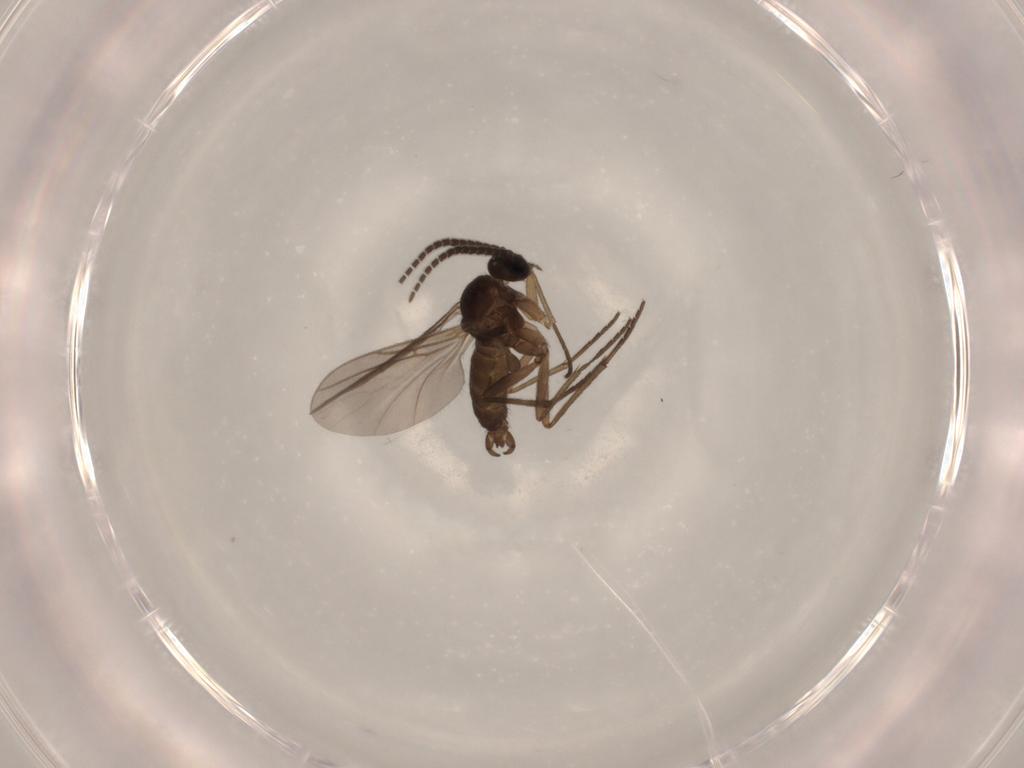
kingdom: Animalia
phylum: Arthropoda
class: Insecta
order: Diptera
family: Sciaridae
